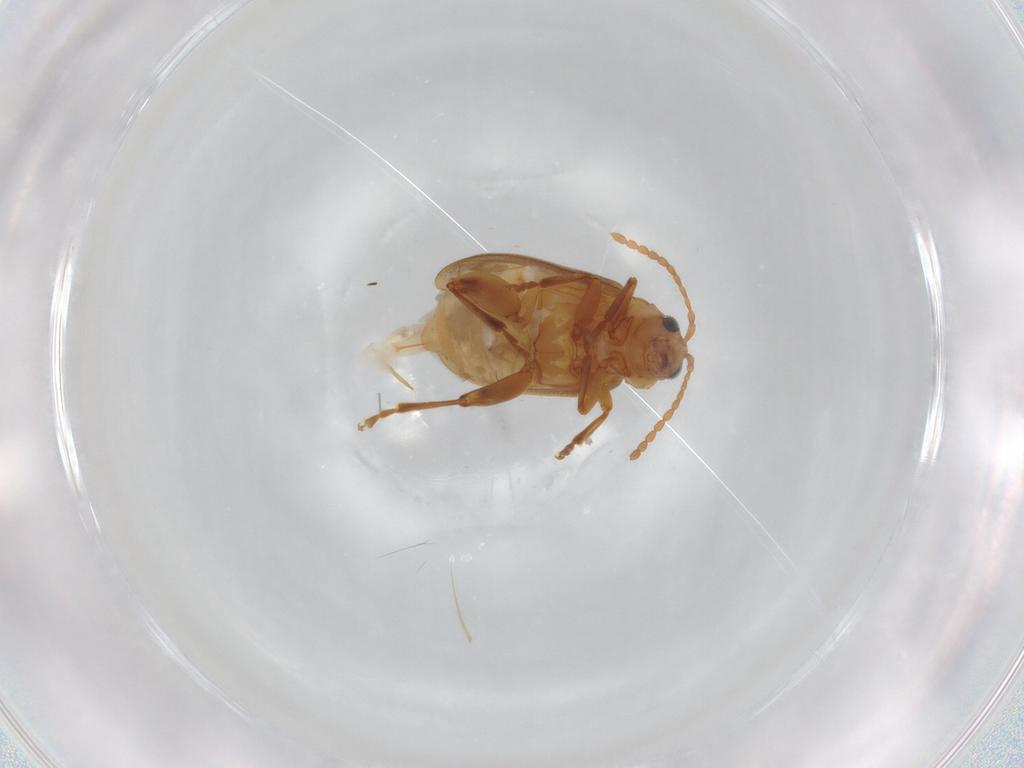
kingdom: Animalia
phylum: Arthropoda
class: Insecta
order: Coleoptera
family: Chrysomelidae
